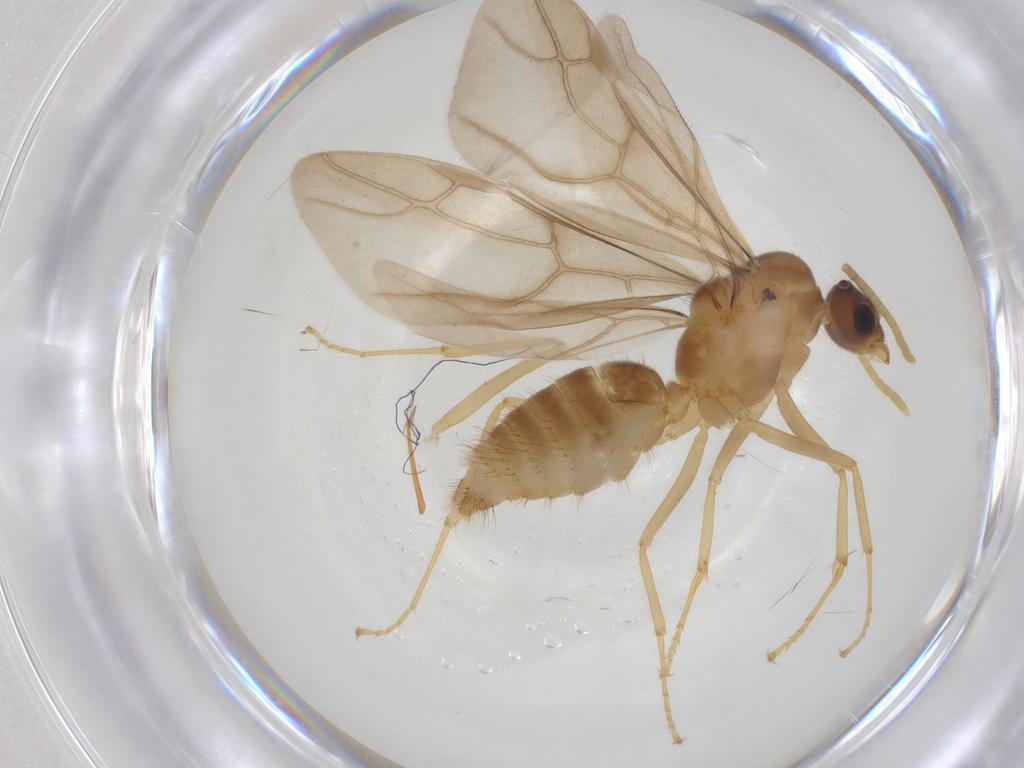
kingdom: Animalia
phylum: Arthropoda
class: Insecta
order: Hymenoptera
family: Formicidae
